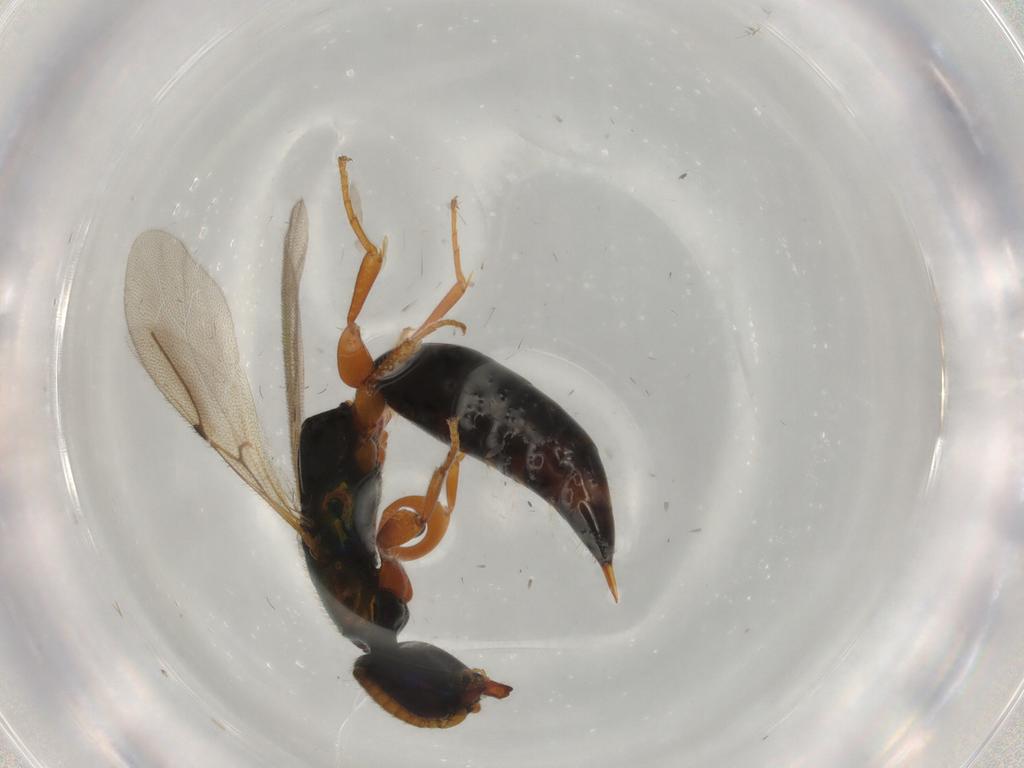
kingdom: Animalia
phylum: Arthropoda
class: Insecta
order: Hymenoptera
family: Bethylidae
